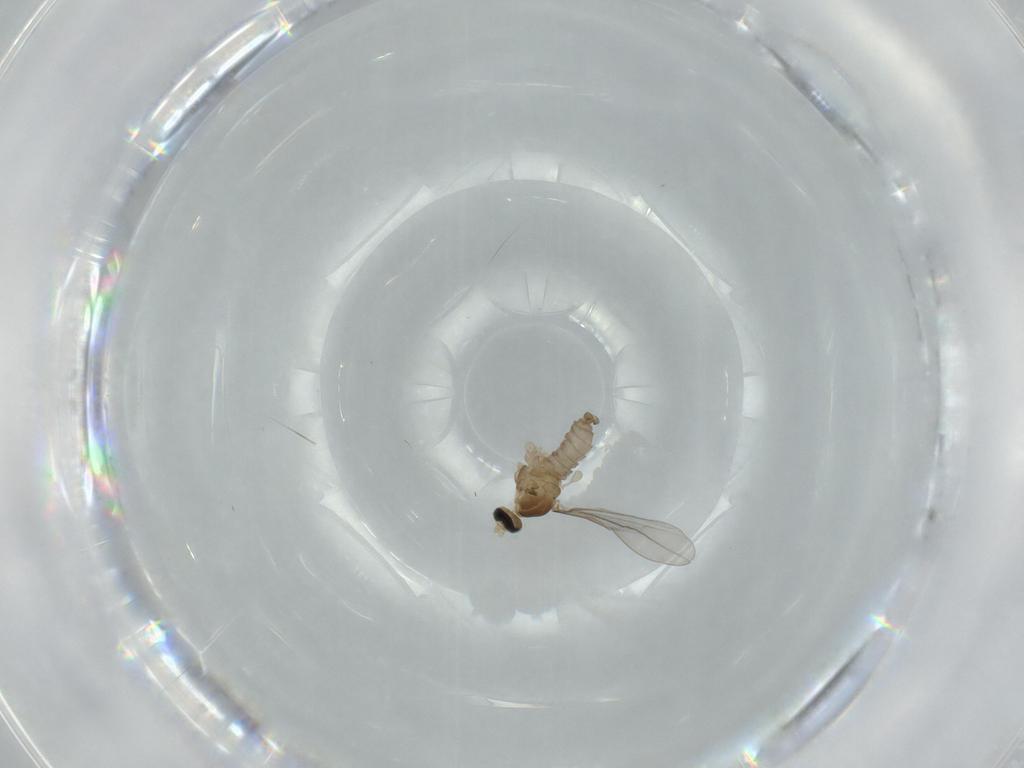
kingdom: Animalia
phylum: Arthropoda
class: Insecta
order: Diptera
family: Cecidomyiidae
